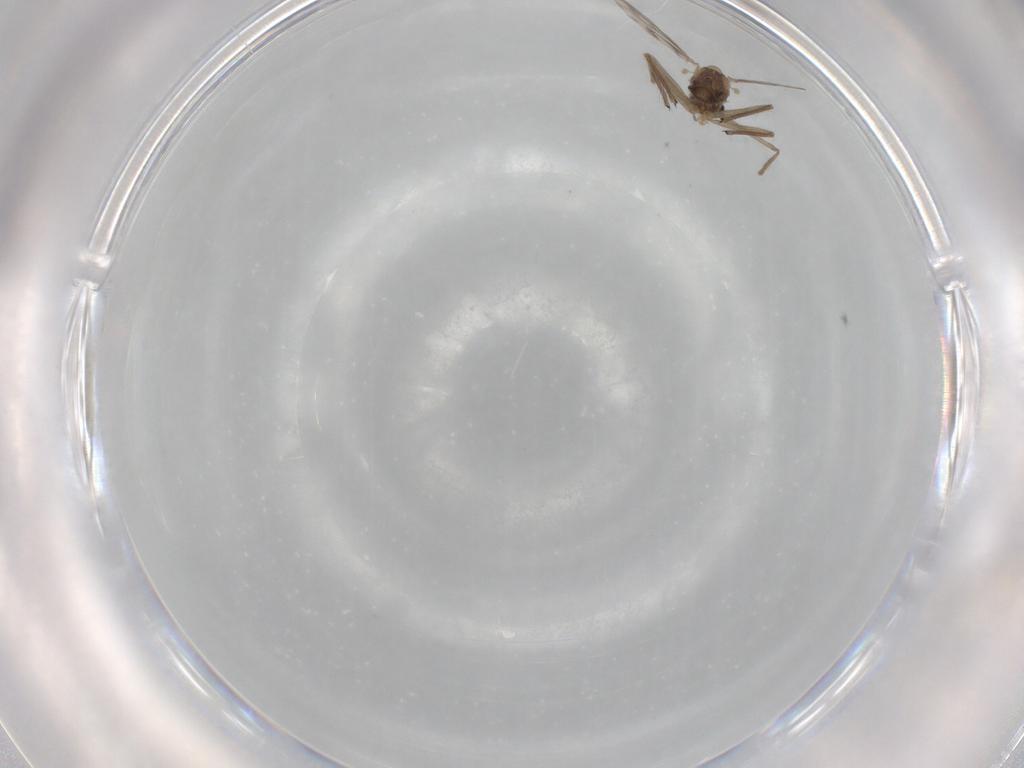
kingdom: Animalia
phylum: Arthropoda
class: Insecta
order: Diptera
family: Chironomidae
